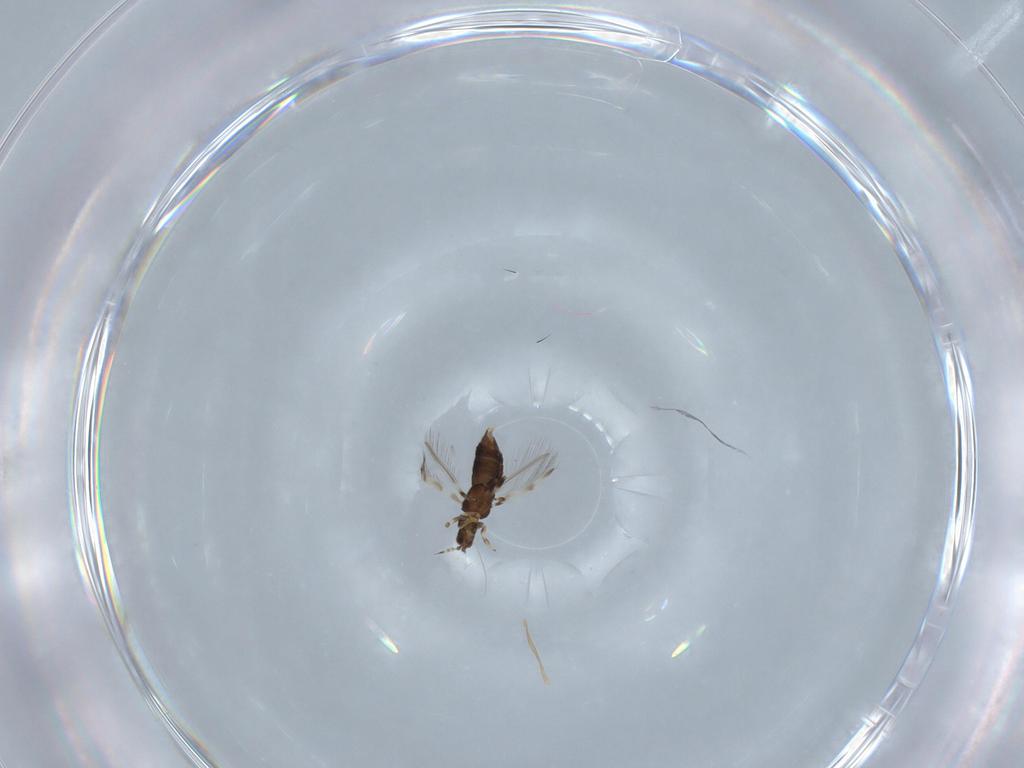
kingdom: Animalia
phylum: Arthropoda
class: Insecta
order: Thysanoptera
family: Thripidae
